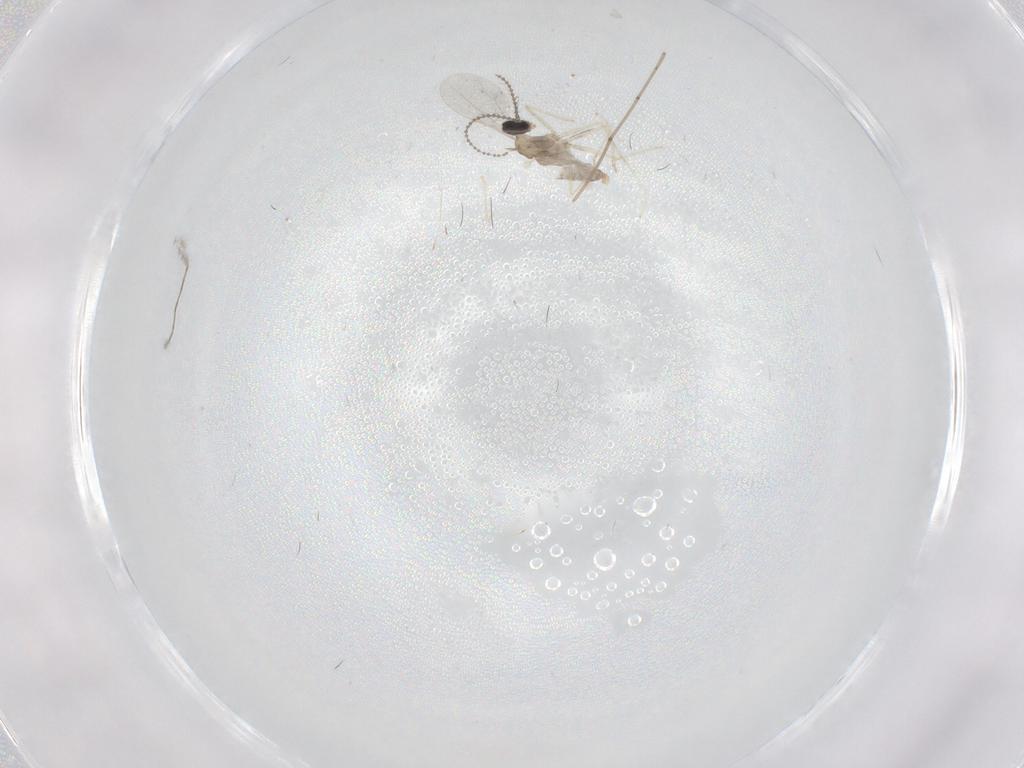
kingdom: Animalia
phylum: Arthropoda
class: Insecta
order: Diptera
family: Cecidomyiidae
